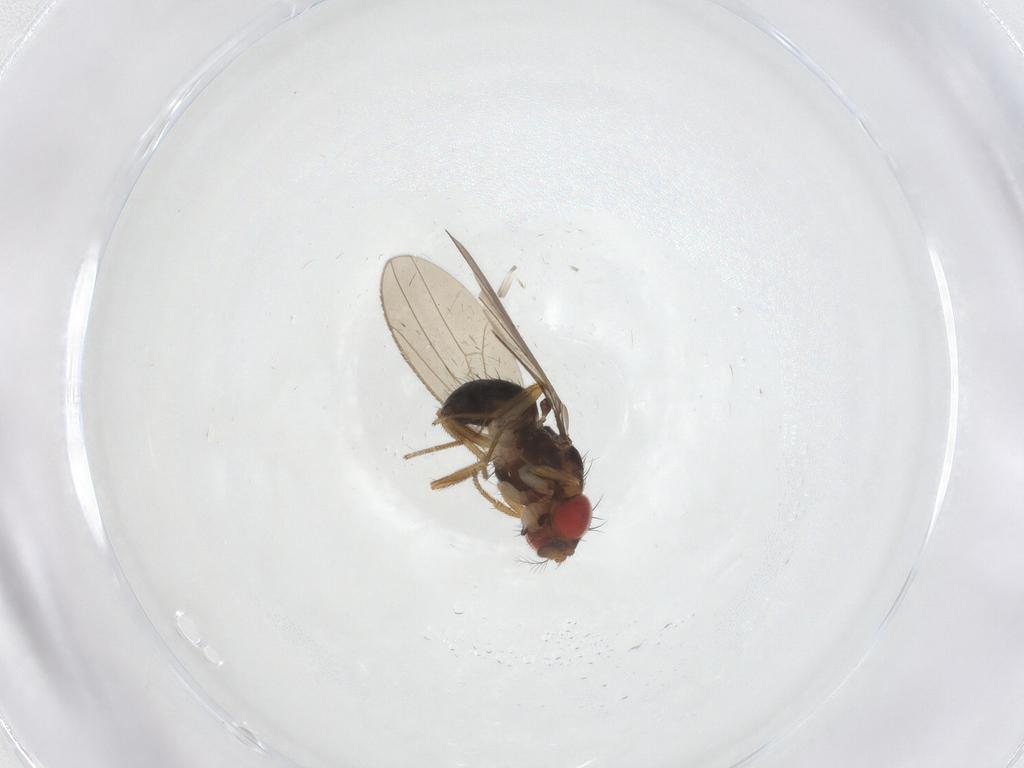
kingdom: Animalia
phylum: Arthropoda
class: Insecta
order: Diptera
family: Drosophilidae
